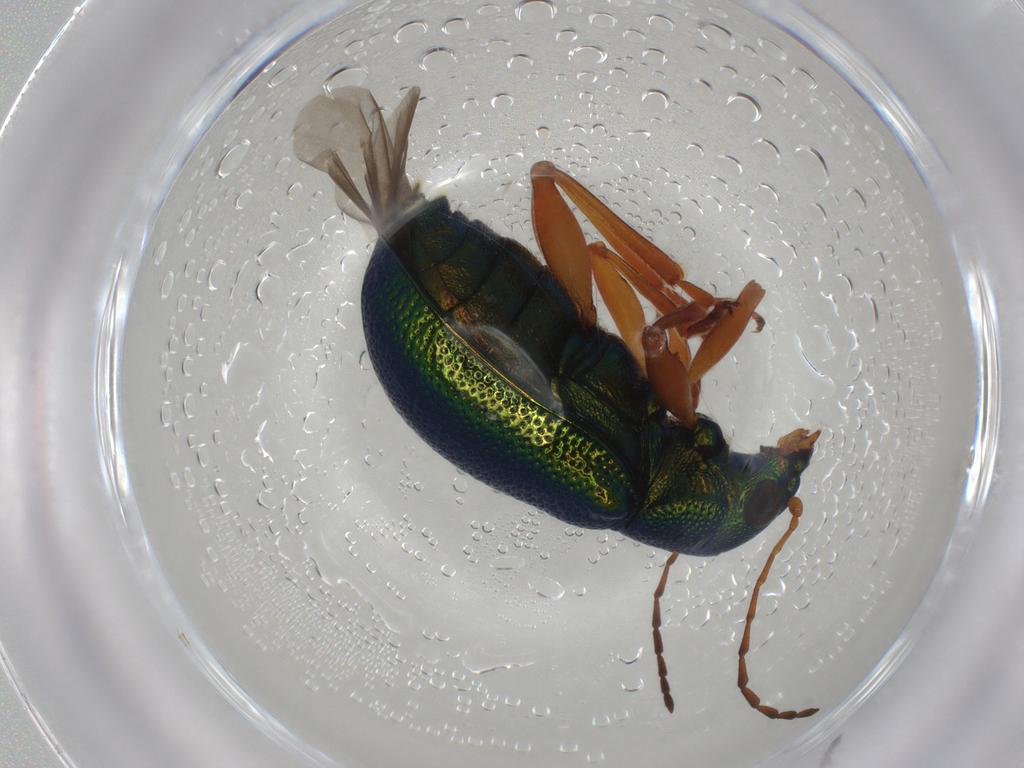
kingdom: Animalia
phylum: Arthropoda
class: Insecta
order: Coleoptera
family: Chrysomelidae
